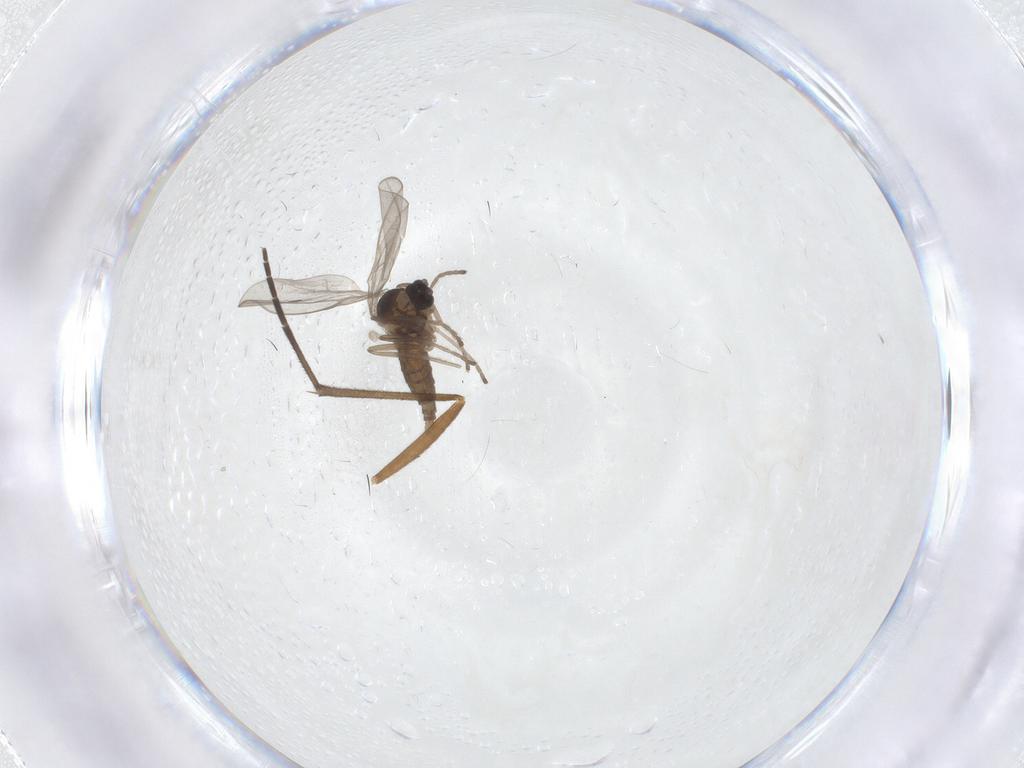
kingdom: Animalia
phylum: Arthropoda
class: Insecta
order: Diptera
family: Sciaridae
